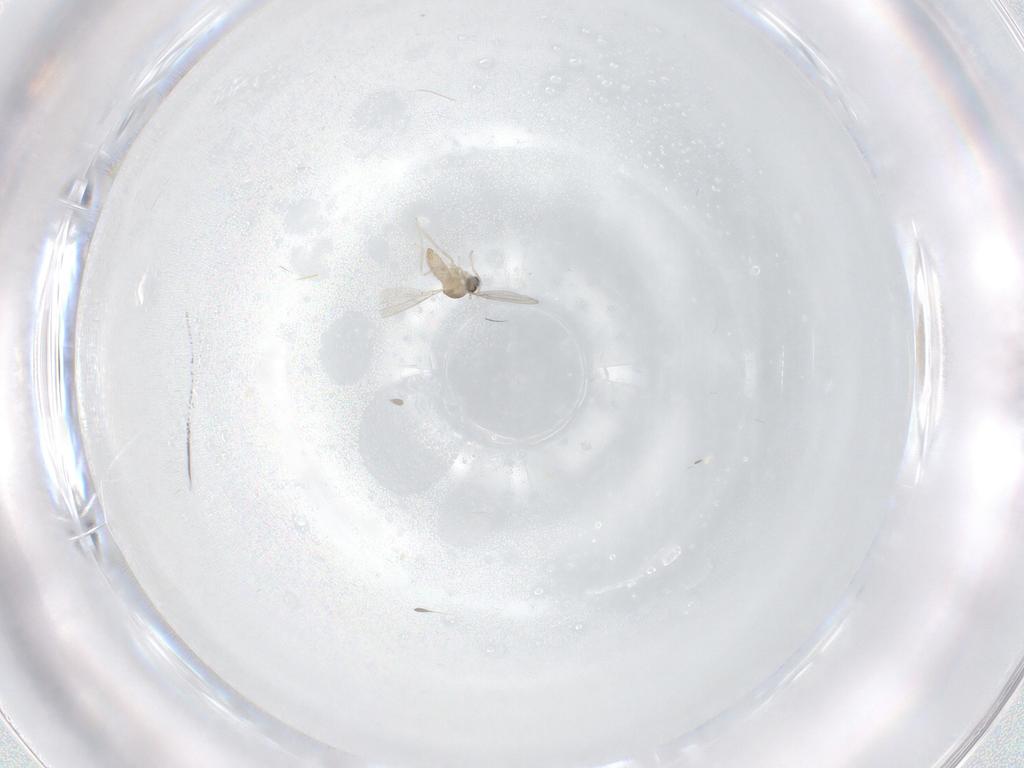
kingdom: Animalia
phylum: Arthropoda
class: Insecta
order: Diptera
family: Cecidomyiidae
